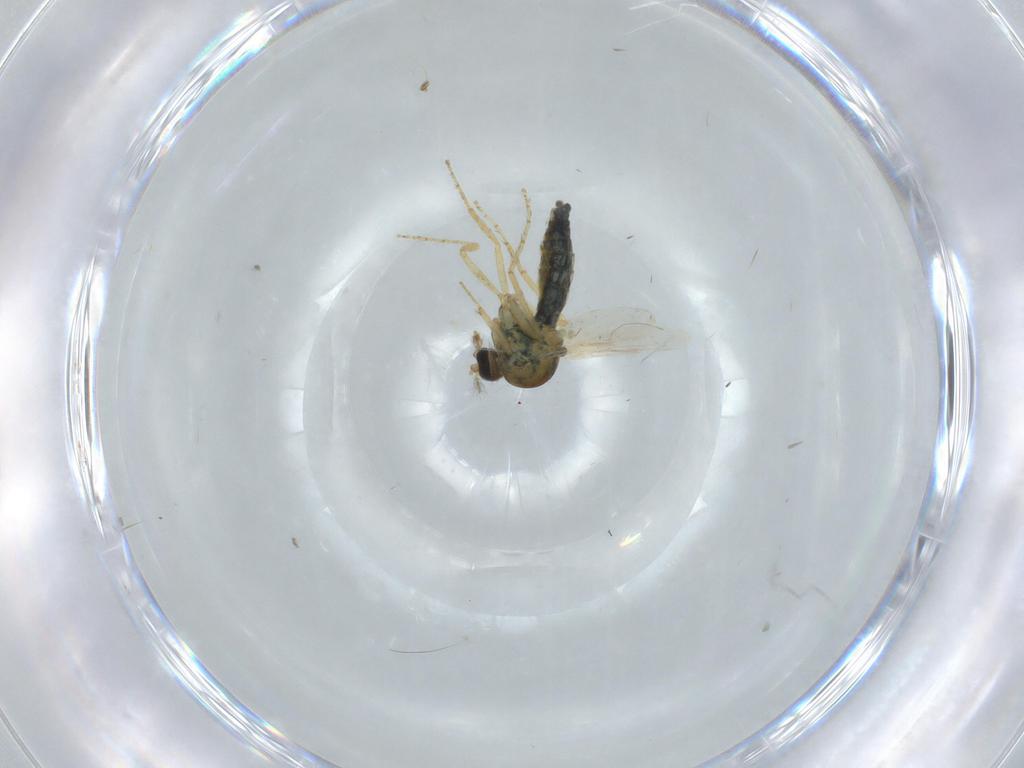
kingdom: Animalia
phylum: Arthropoda
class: Insecta
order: Diptera
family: Ceratopogonidae
